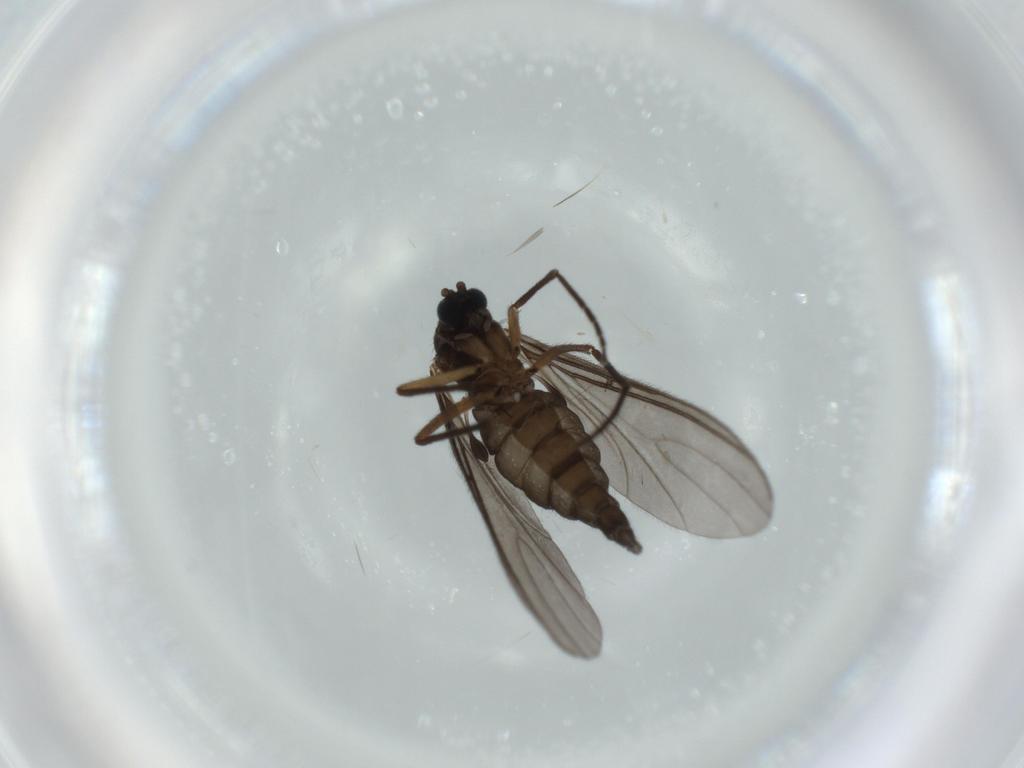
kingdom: Animalia
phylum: Arthropoda
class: Insecta
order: Diptera
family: Sciaridae
